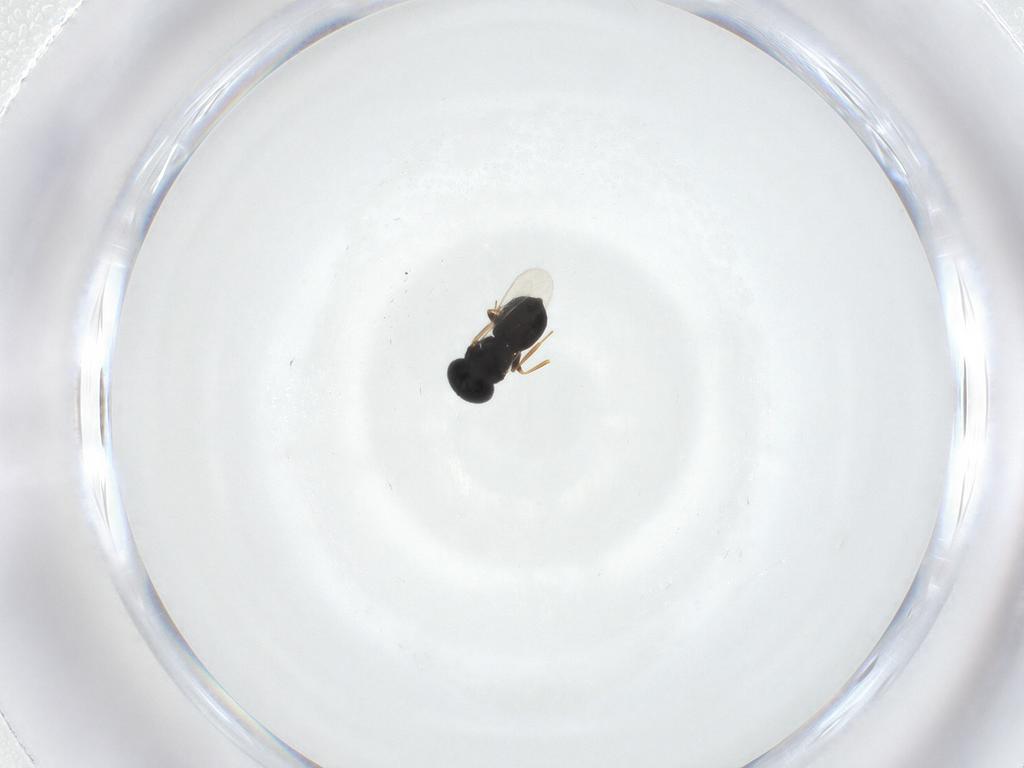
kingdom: Animalia
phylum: Arthropoda
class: Insecta
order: Hymenoptera
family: Scelionidae
